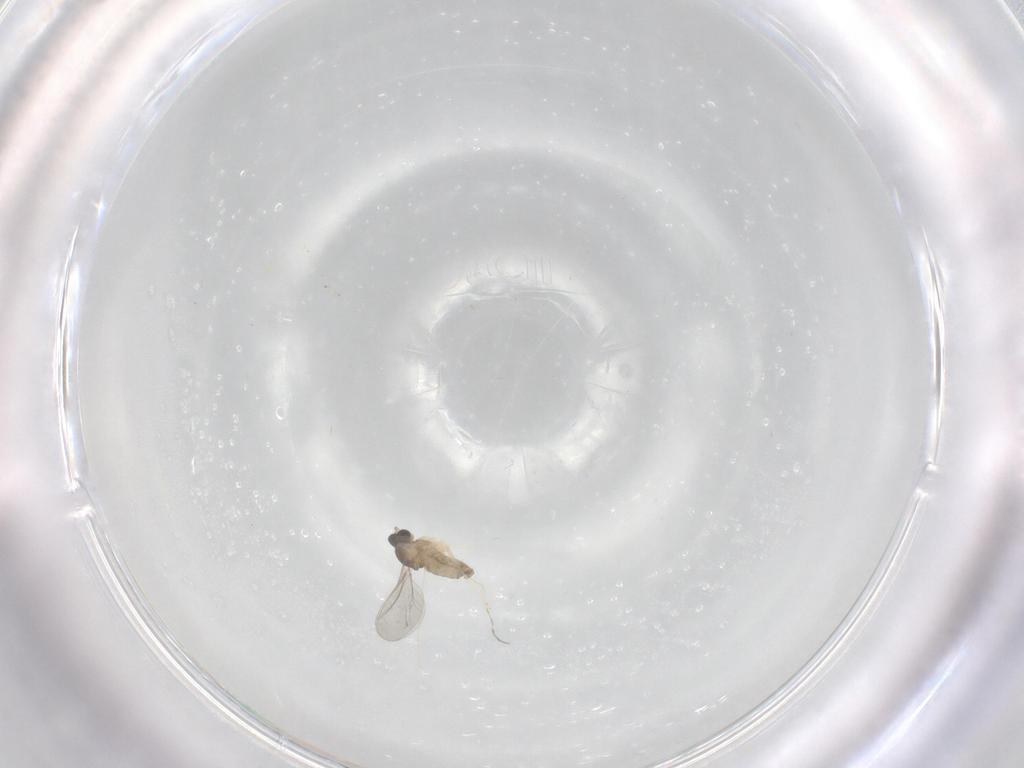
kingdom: Animalia
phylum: Arthropoda
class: Insecta
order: Diptera
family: Cecidomyiidae
